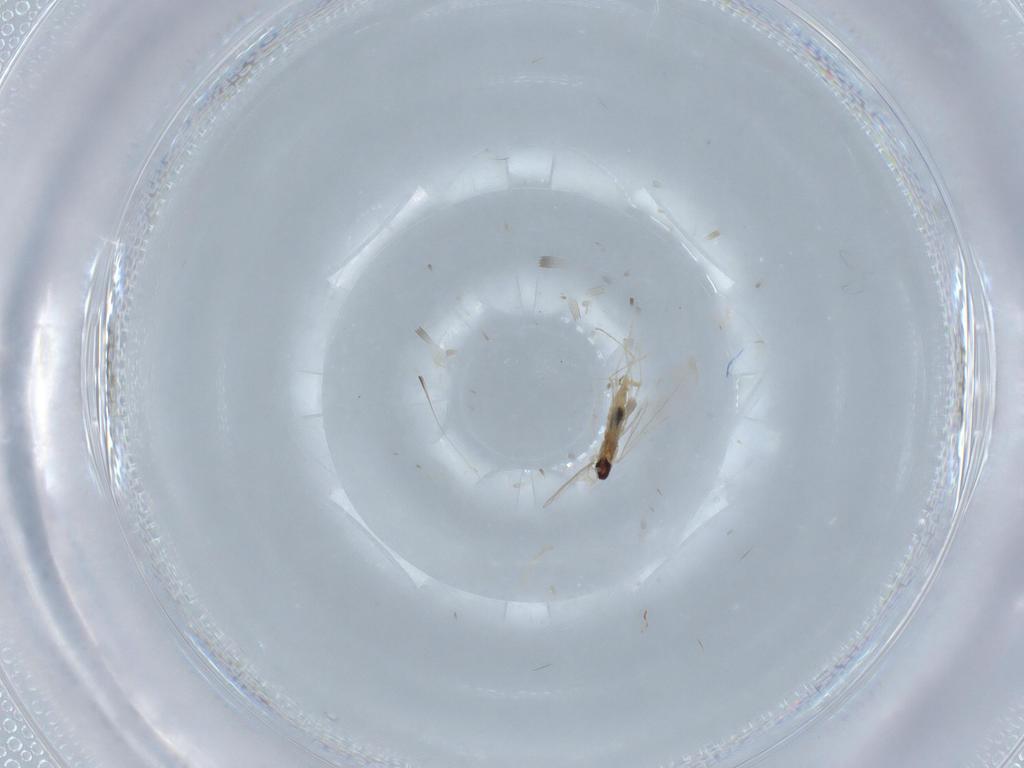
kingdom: Animalia
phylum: Arthropoda
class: Insecta
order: Diptera
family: Cecidomyiidae
